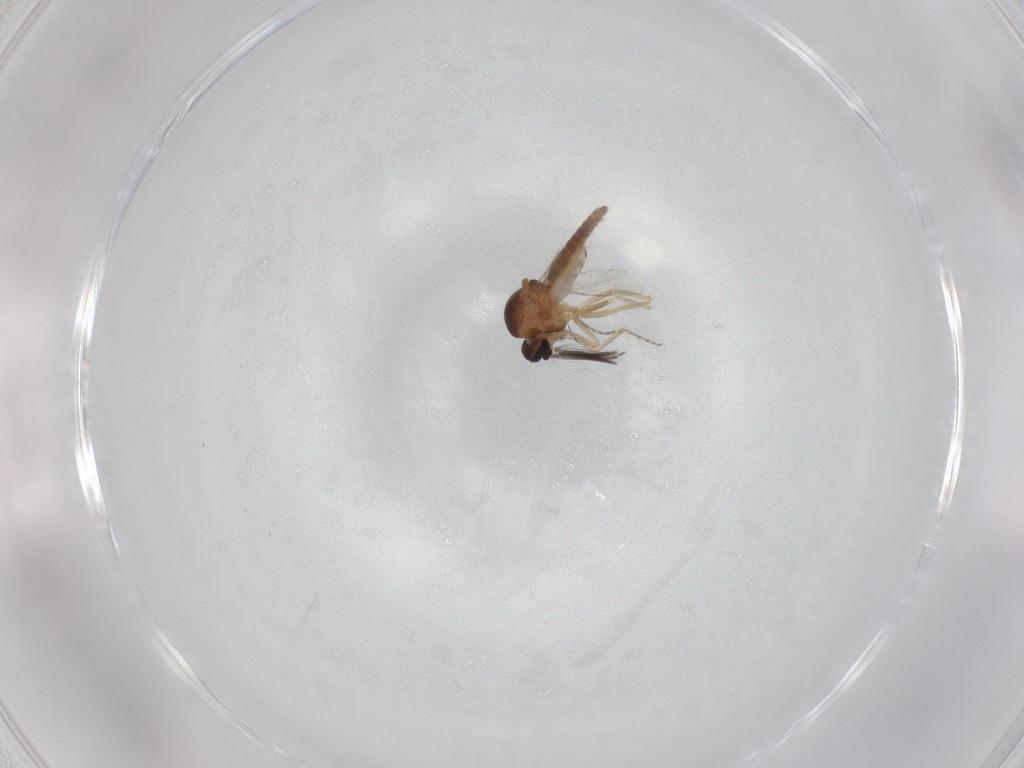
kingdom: Animalia
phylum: Arthropoda
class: Insecta
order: Diptera
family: Ceratopogonidae
